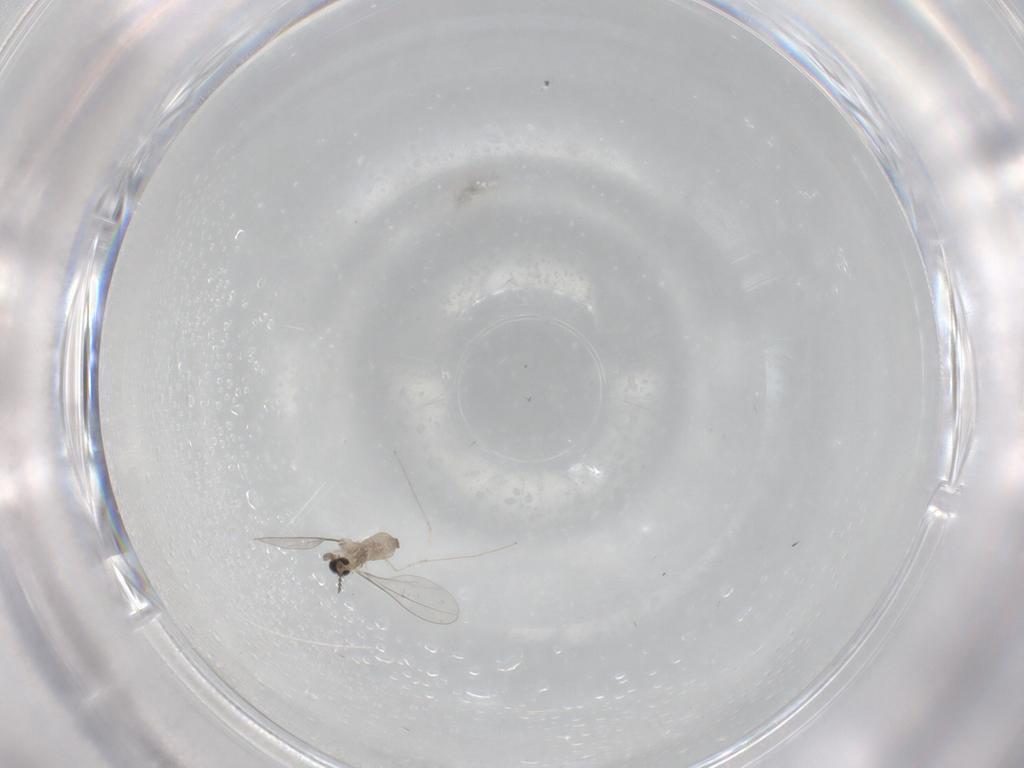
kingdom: Animalia
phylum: Arthropoda
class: Insecta
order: Diptera
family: Cecidomyiidae
